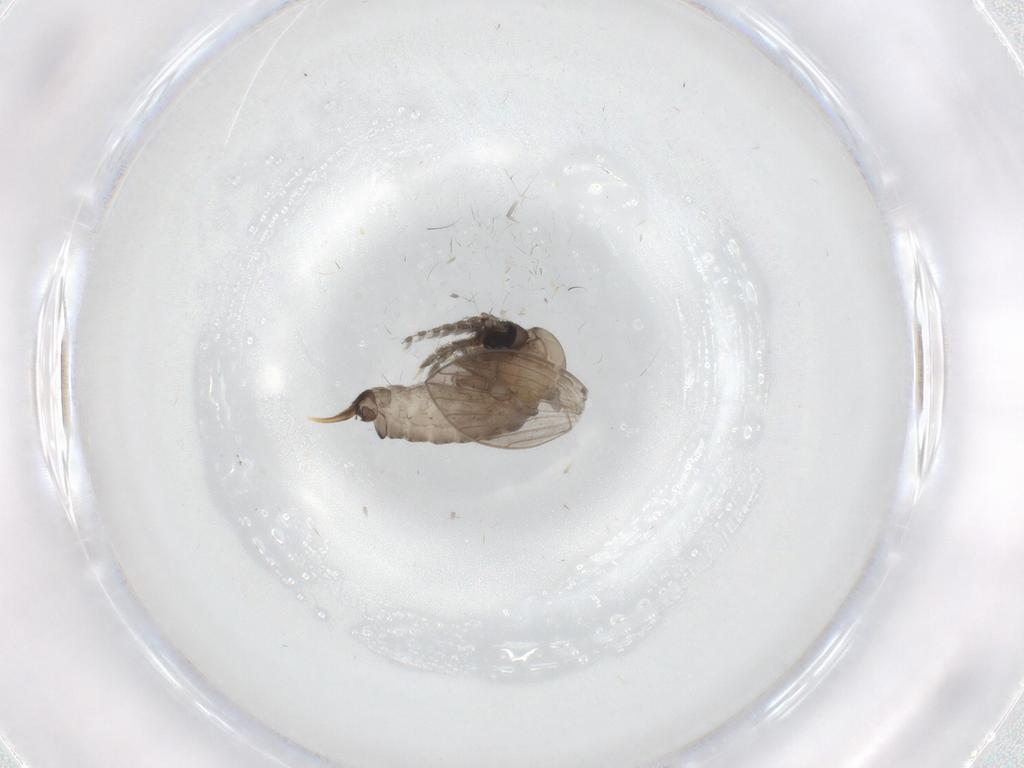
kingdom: Animalia
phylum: Arthropoda
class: Insecta
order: Diptera
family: Psychodidae
